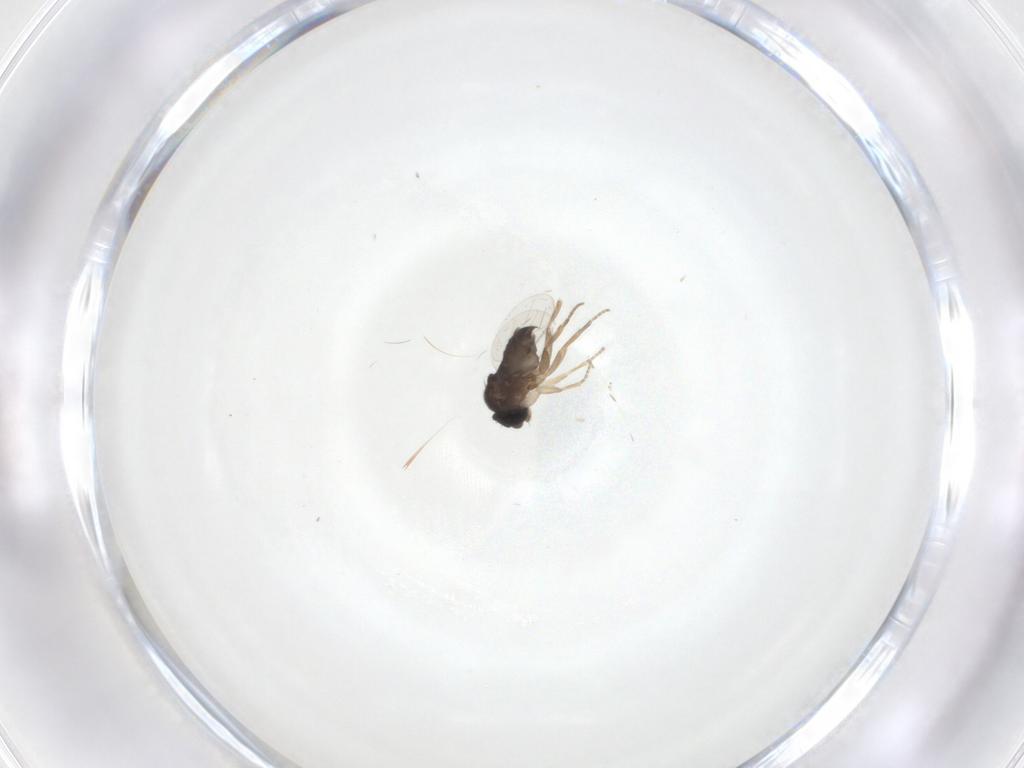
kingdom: Animalia
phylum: Arthropoda
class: Insecta
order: Diptera
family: Phoridae
